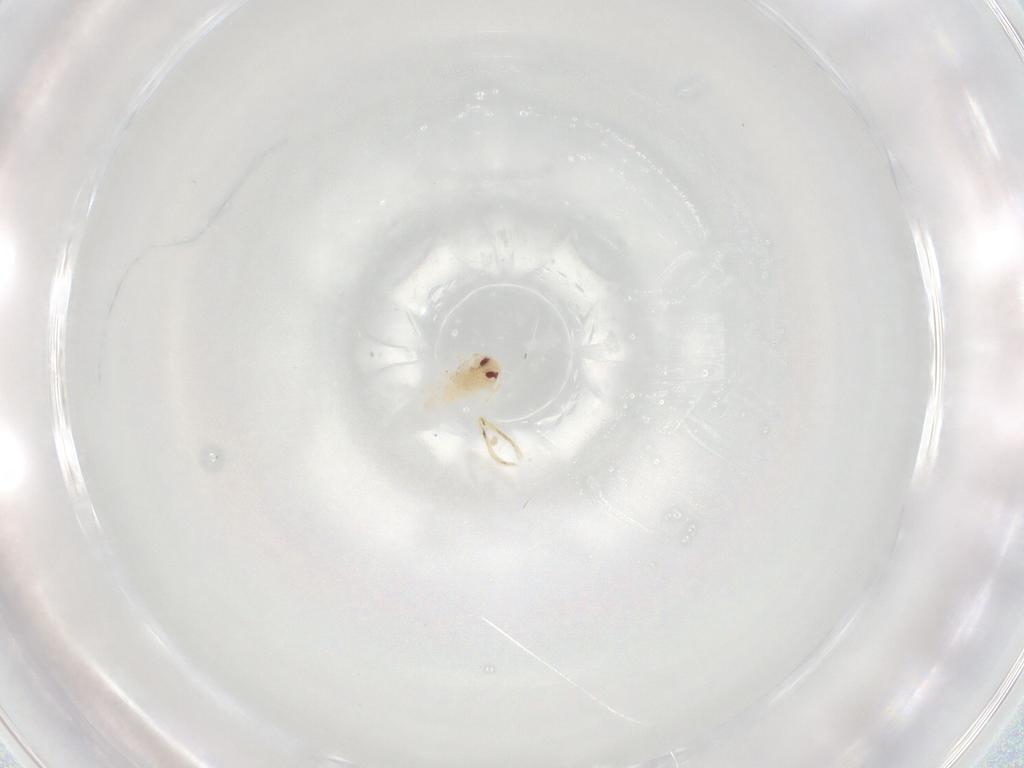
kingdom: Animalia
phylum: Arthropoda
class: Insecta
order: Hemiptera
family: Aleyrodidae
